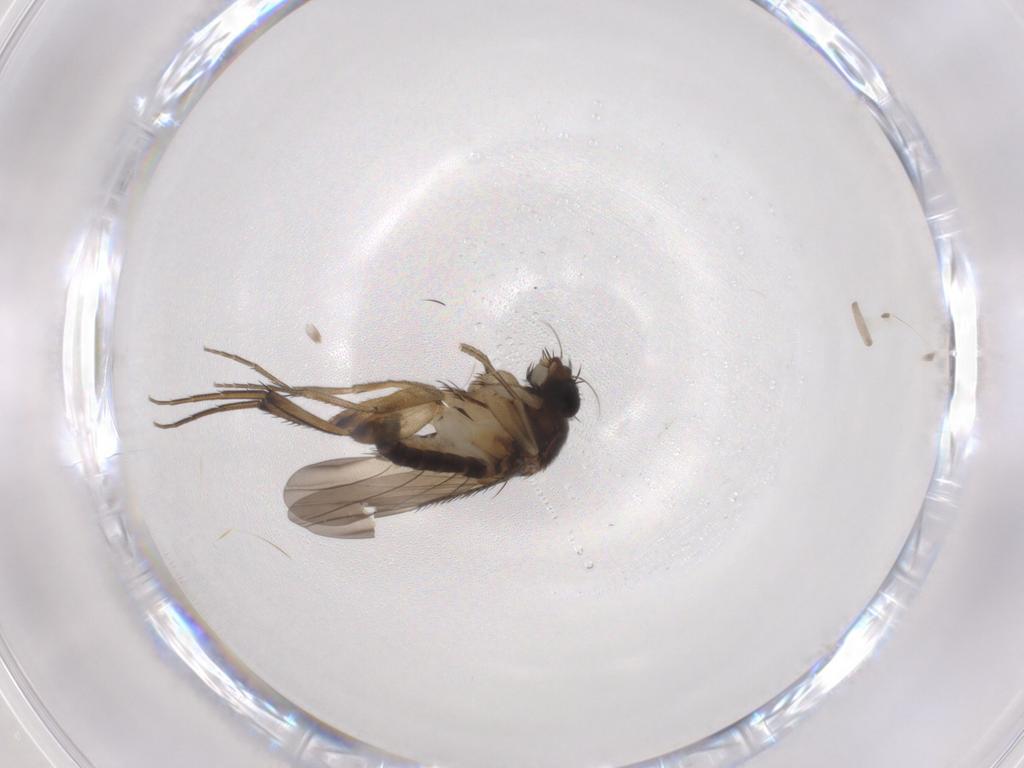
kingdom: Animalia
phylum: Arthropoda
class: Insecta
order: Diptera
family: Phoridae
